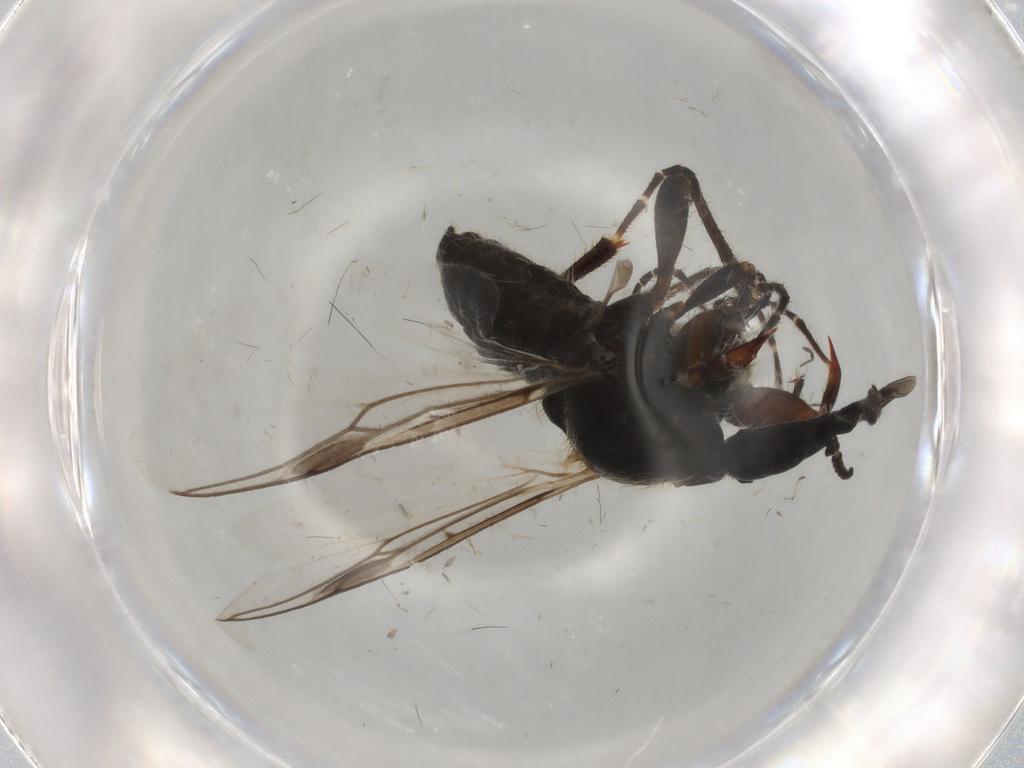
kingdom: Animalia
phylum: Arthropoda
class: Insecta
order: Diptera
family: Bibionidae
